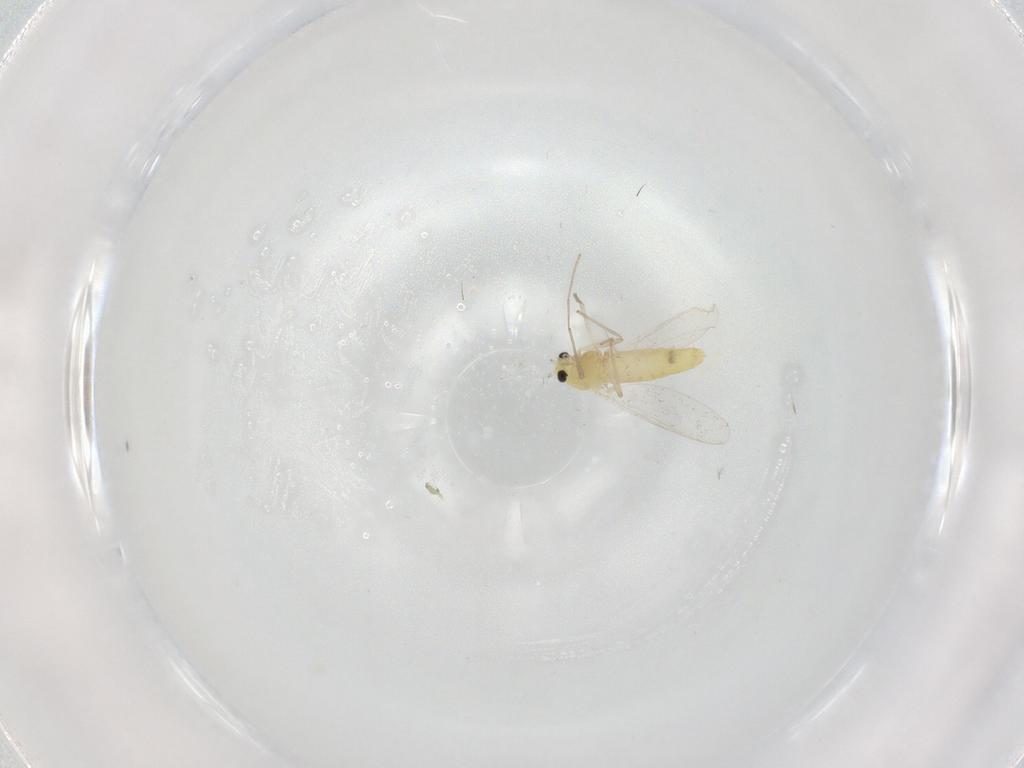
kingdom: Animalia
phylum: Arthropoda
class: Insecta
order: Diptera
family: Chironomidae
